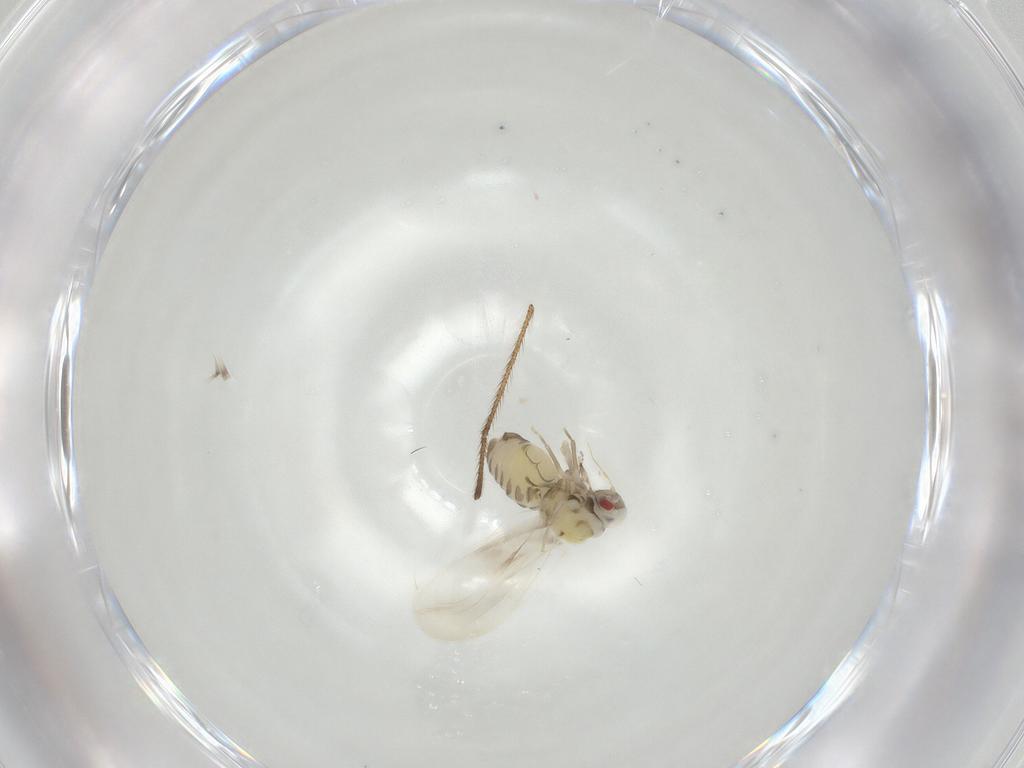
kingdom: Animalia
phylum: Arthropoda
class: Insecta
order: Hemiptera
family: Aleyrodidae
